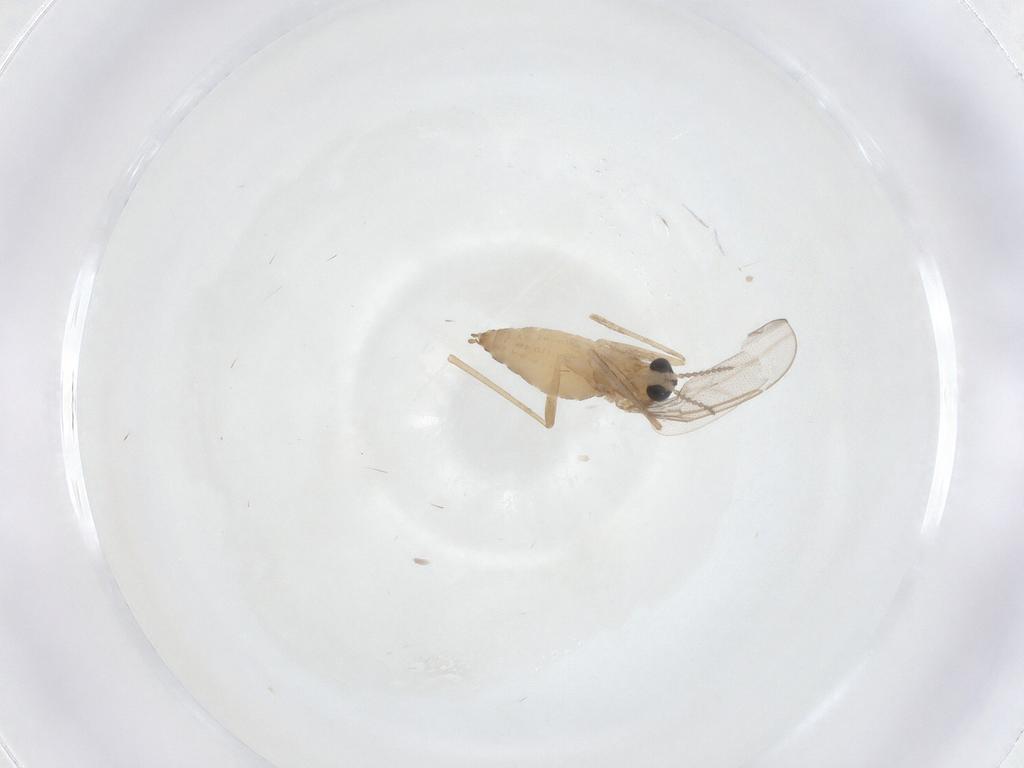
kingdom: Animalia
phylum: Arthropoda
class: Insecta
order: Diptera
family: Cecidomyiidae
